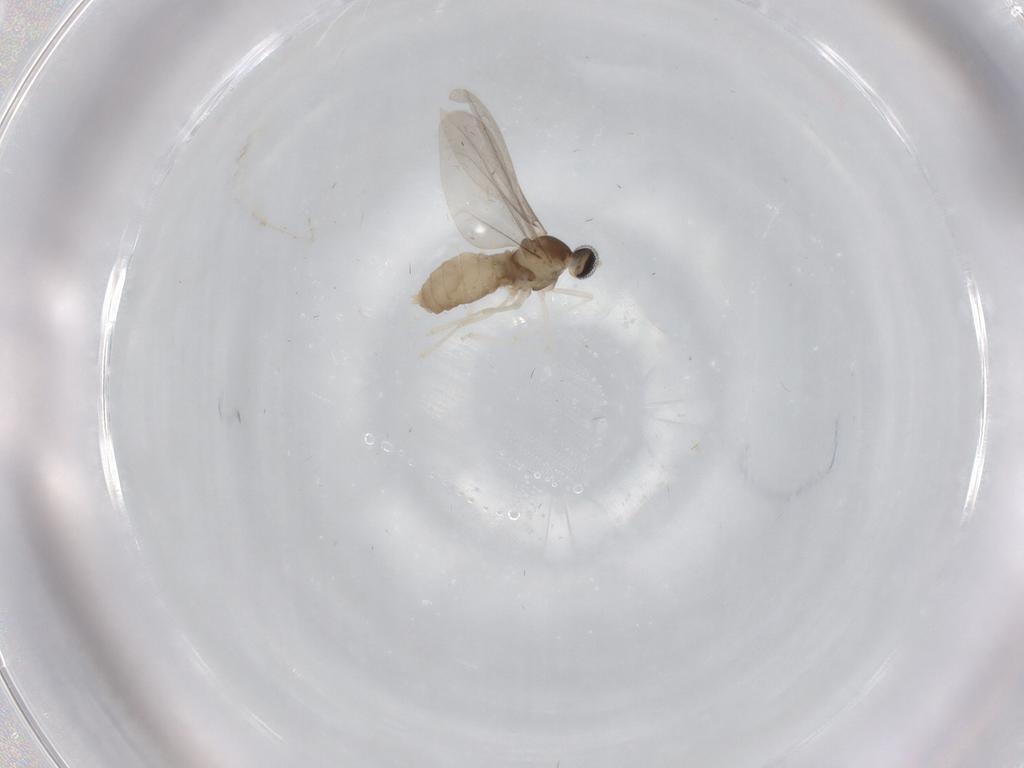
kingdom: Animalia
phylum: Arthropoda
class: Insecta
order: Diptera
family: Cecidomyiidae
